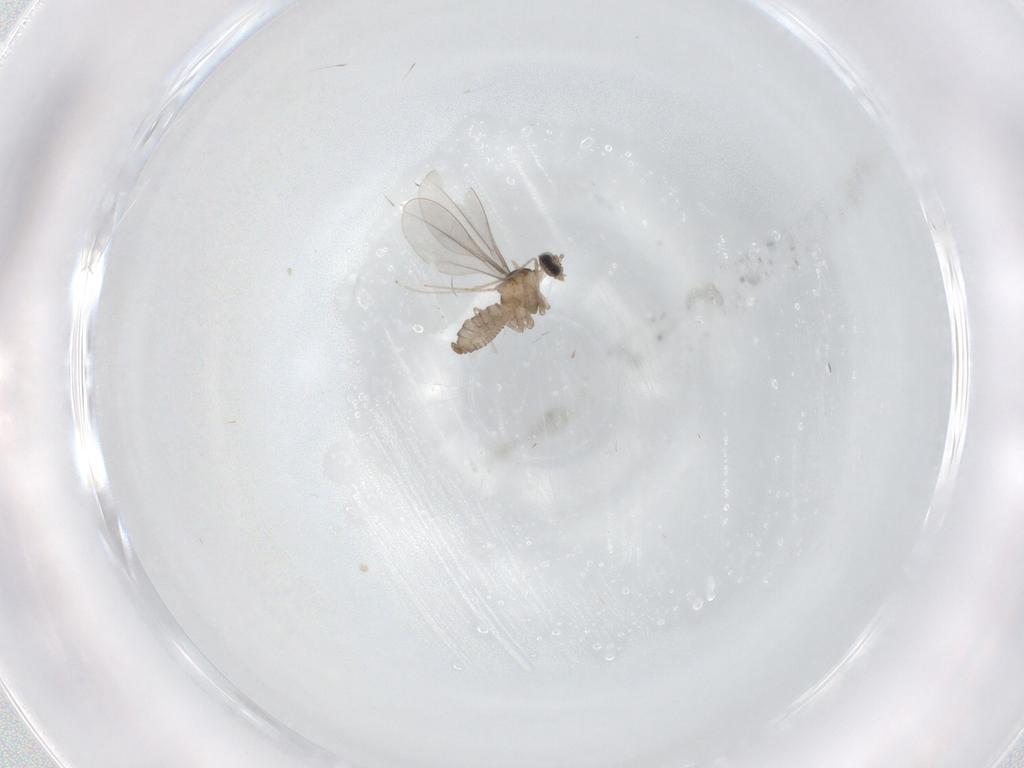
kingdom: Animalia
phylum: Arthropoda
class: Insecta
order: Diptera
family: Cecidomyiidae
